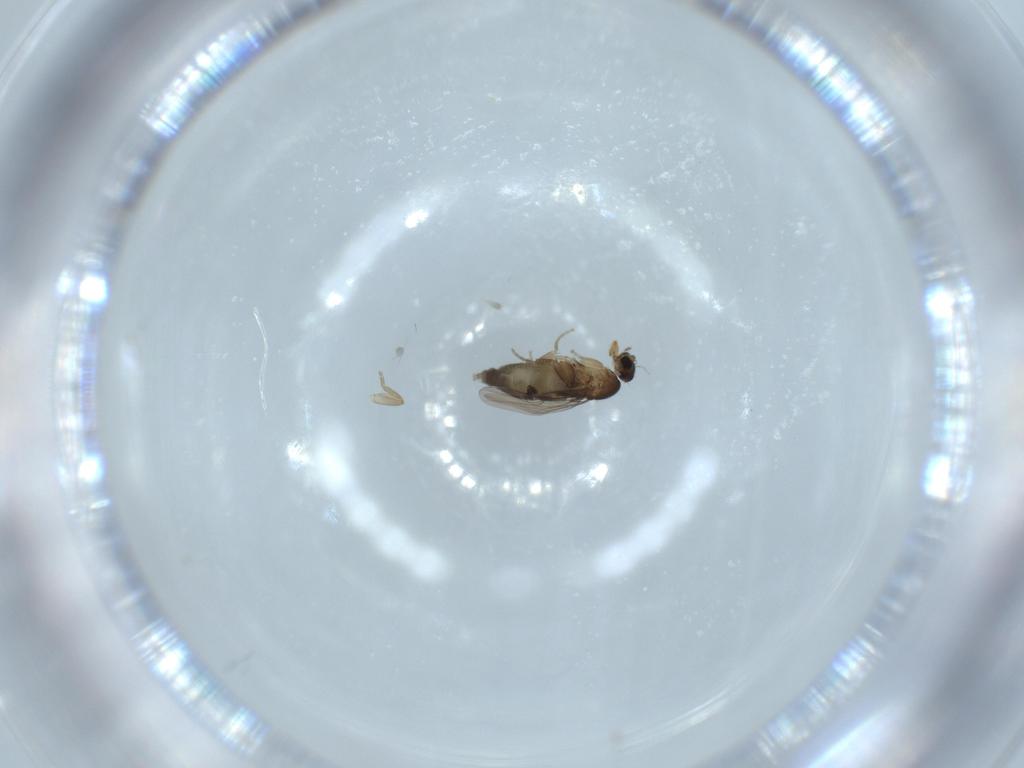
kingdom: Animalia
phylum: Arthropoda
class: Insecta
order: Diptera
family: Phoridae
